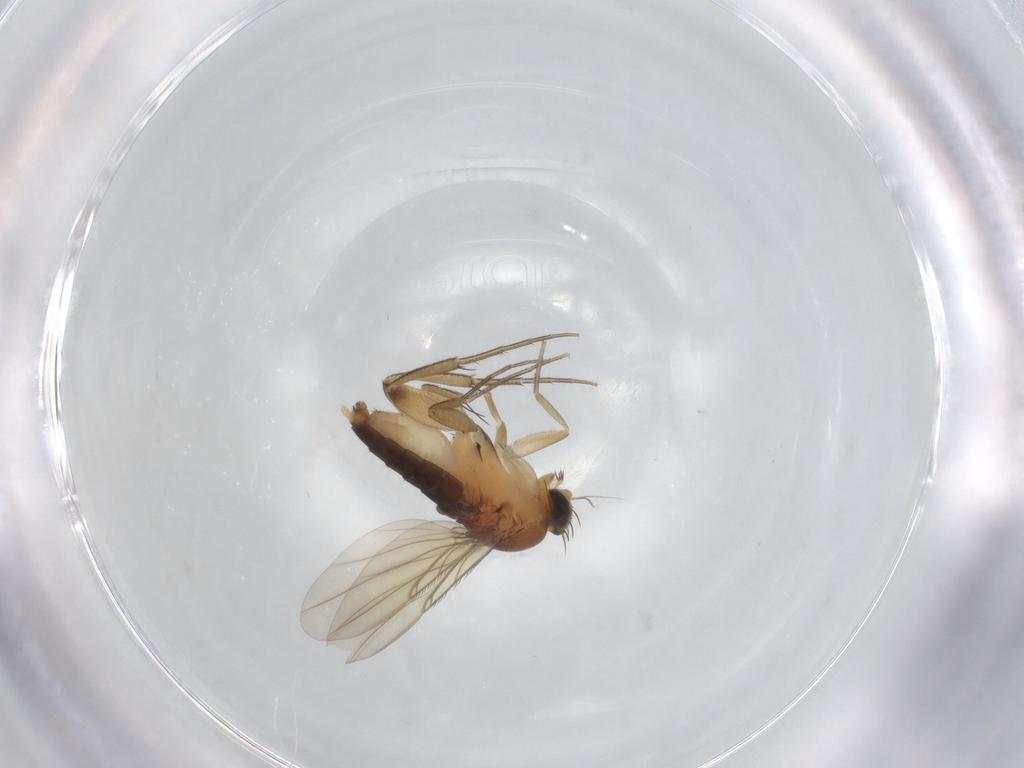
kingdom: Animalia
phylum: Arthropoda
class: Insecta
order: Diptera
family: Phoridae
